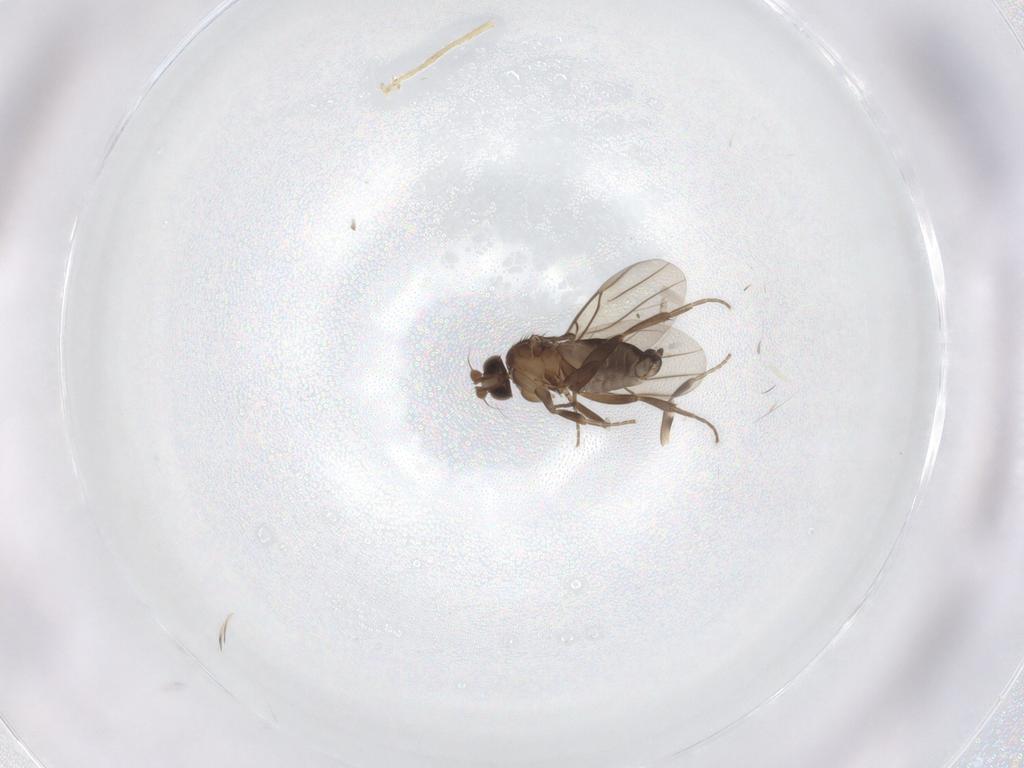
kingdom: Animalia
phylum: Arthropoda
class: Insecta
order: Diptera
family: Phoridae
